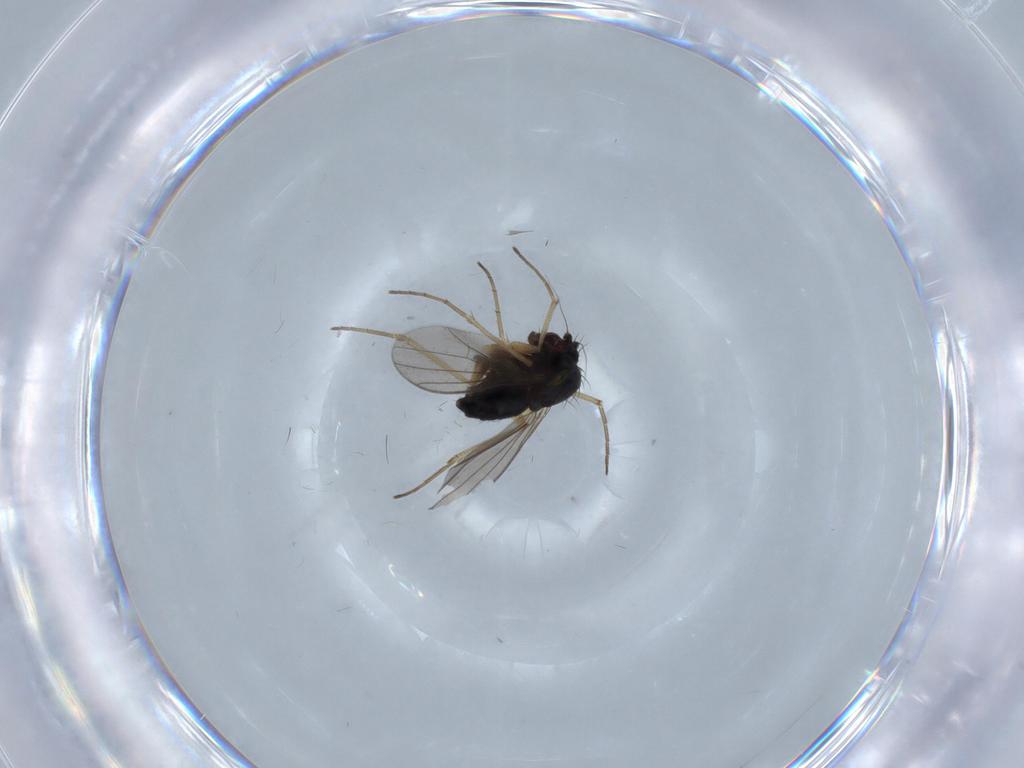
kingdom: Animalia
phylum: Arthropoda
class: Insecta
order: Diptera
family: Dolichopodidae
